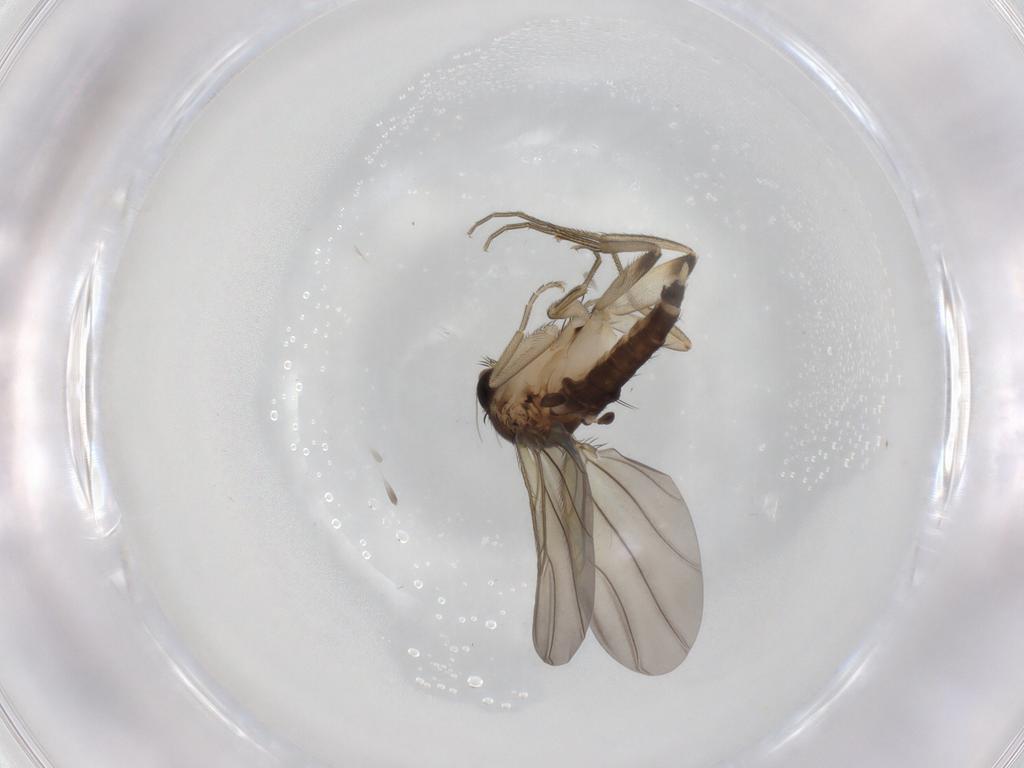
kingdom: Animalia
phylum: Arthropoda
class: Insecta
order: Diptera
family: Phoridae
